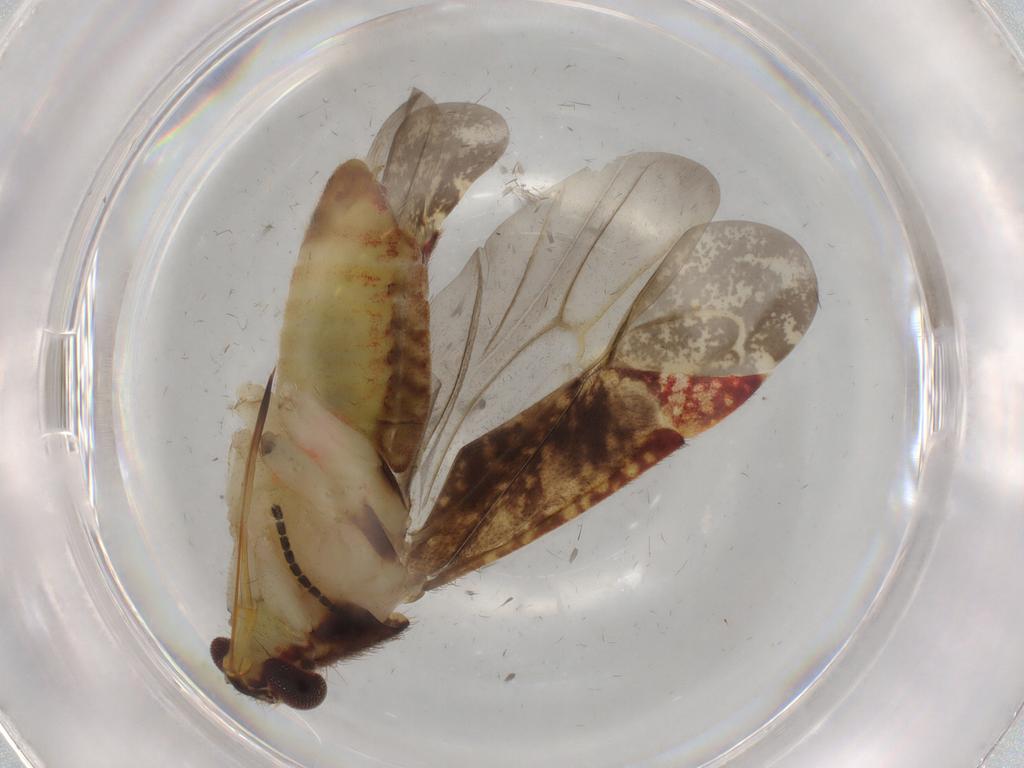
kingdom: Animalia
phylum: Arthropoda
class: Insecta
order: Hemiptera
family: Miridae
